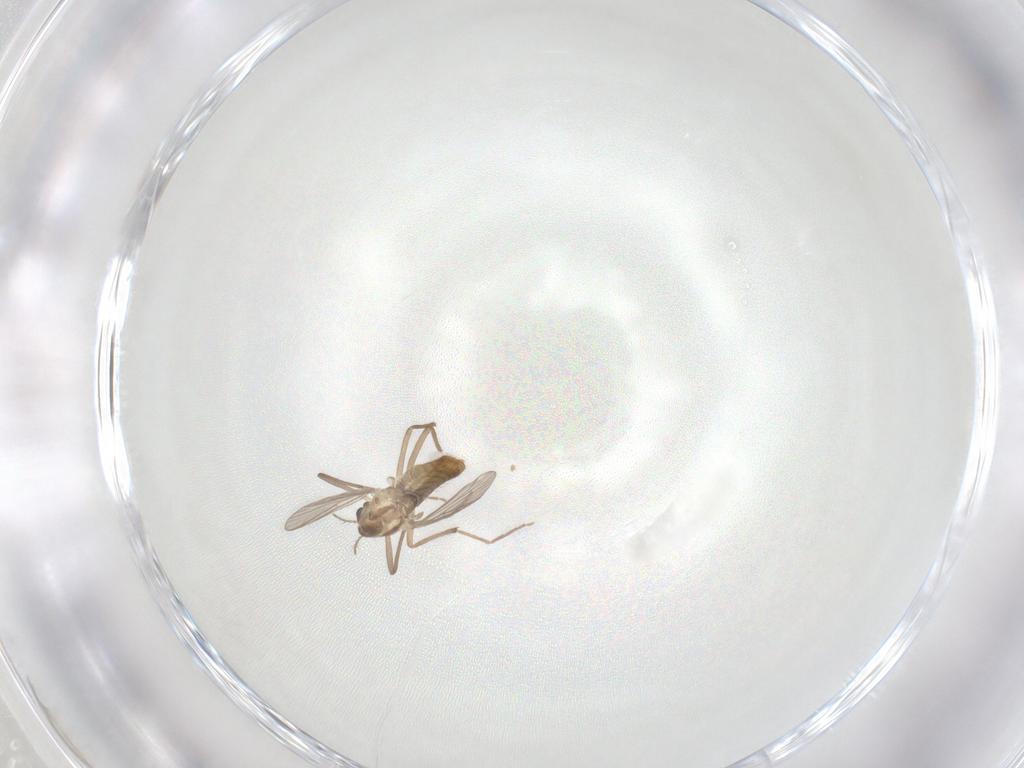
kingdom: Animalia
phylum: Arthropoda
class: Insecta
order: Diptera
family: Chironomidae
